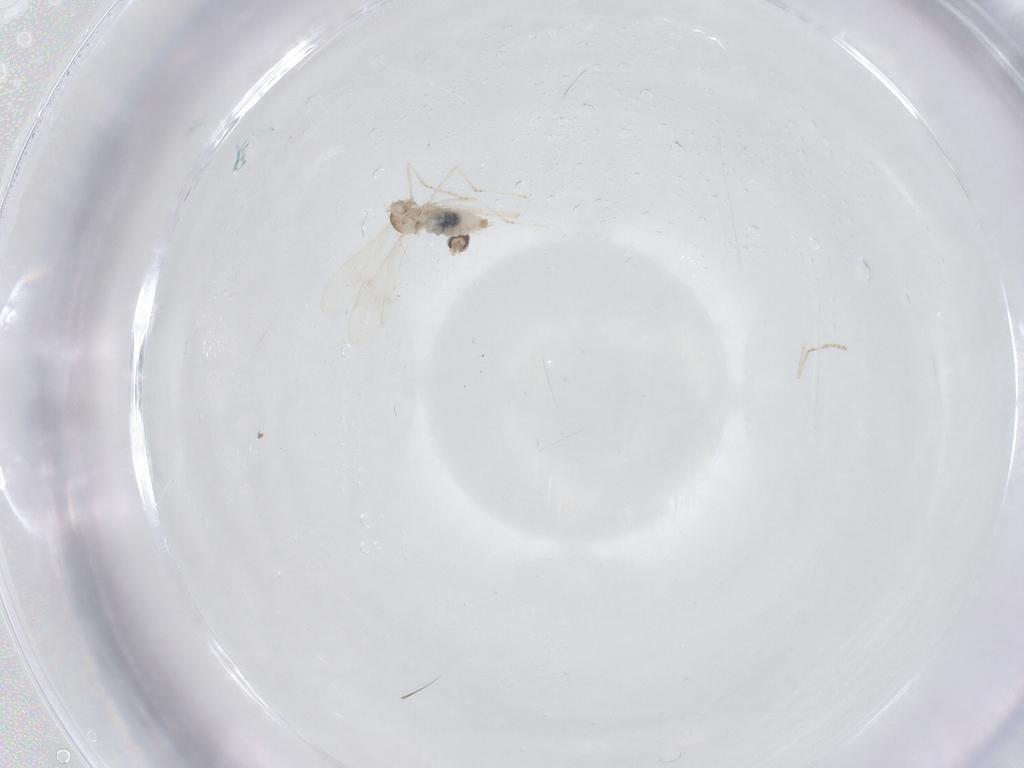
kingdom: Animalia
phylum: Arthropoda
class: Insecta
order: Diptera
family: Cecidomyiidae
